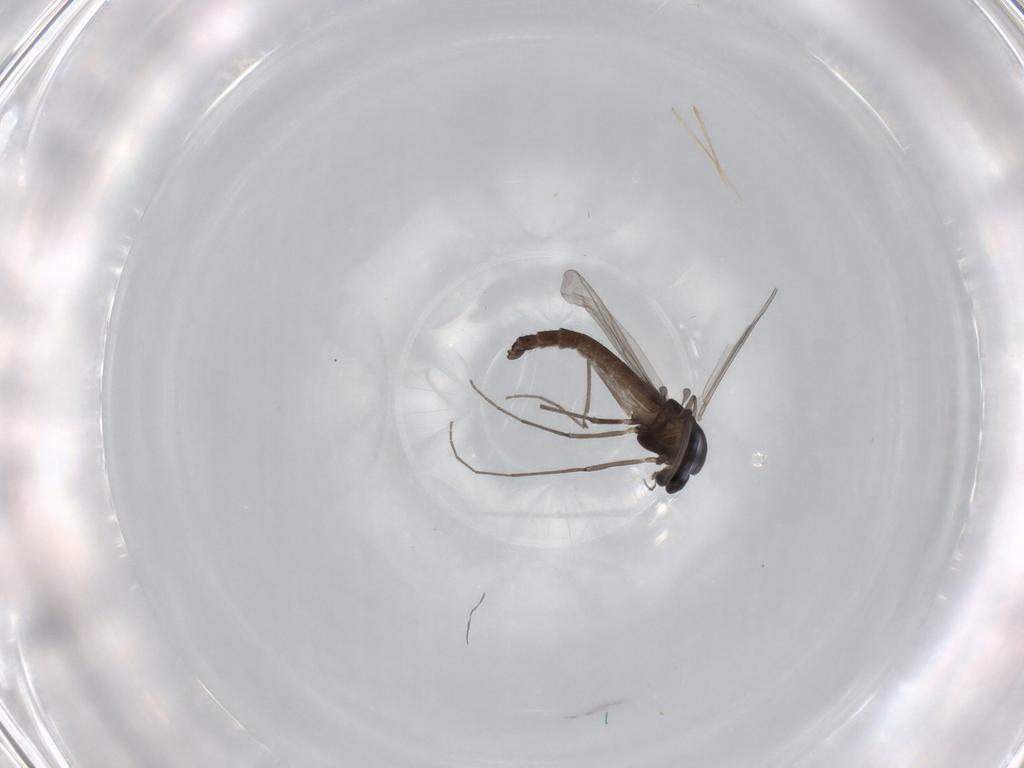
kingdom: Animalia
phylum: Arthropoda
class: Insecta
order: Diptera
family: Chironomidae
